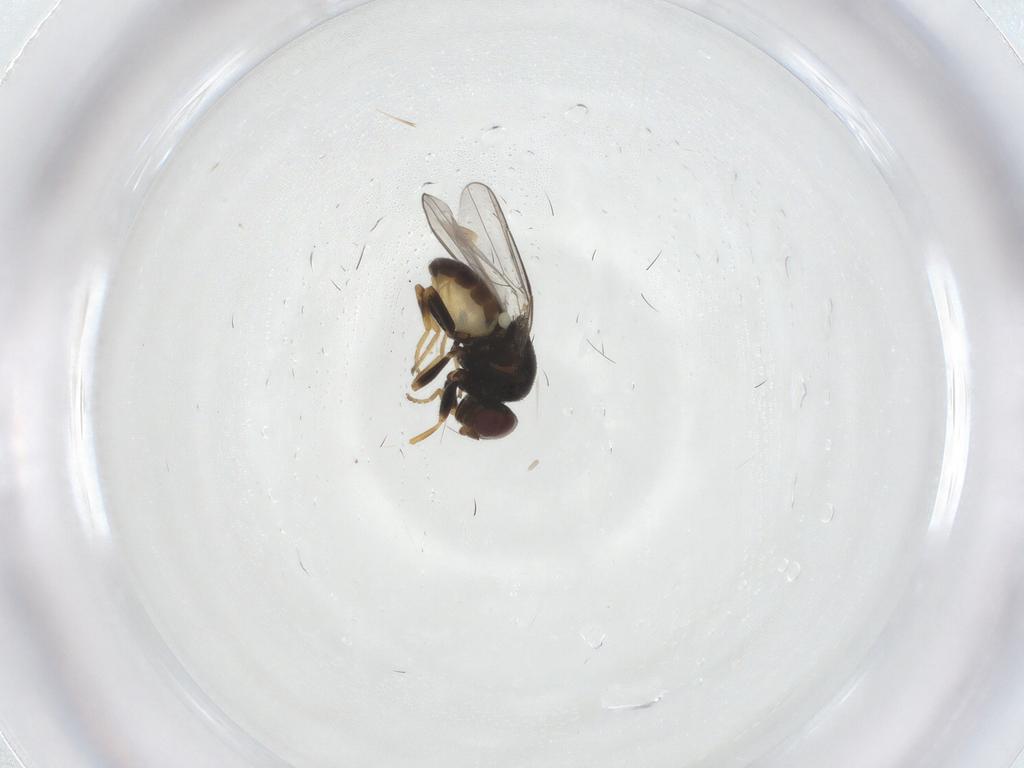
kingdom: Animalia
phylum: Arthropoda
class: Insecta
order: Diptera
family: Chloropidae
